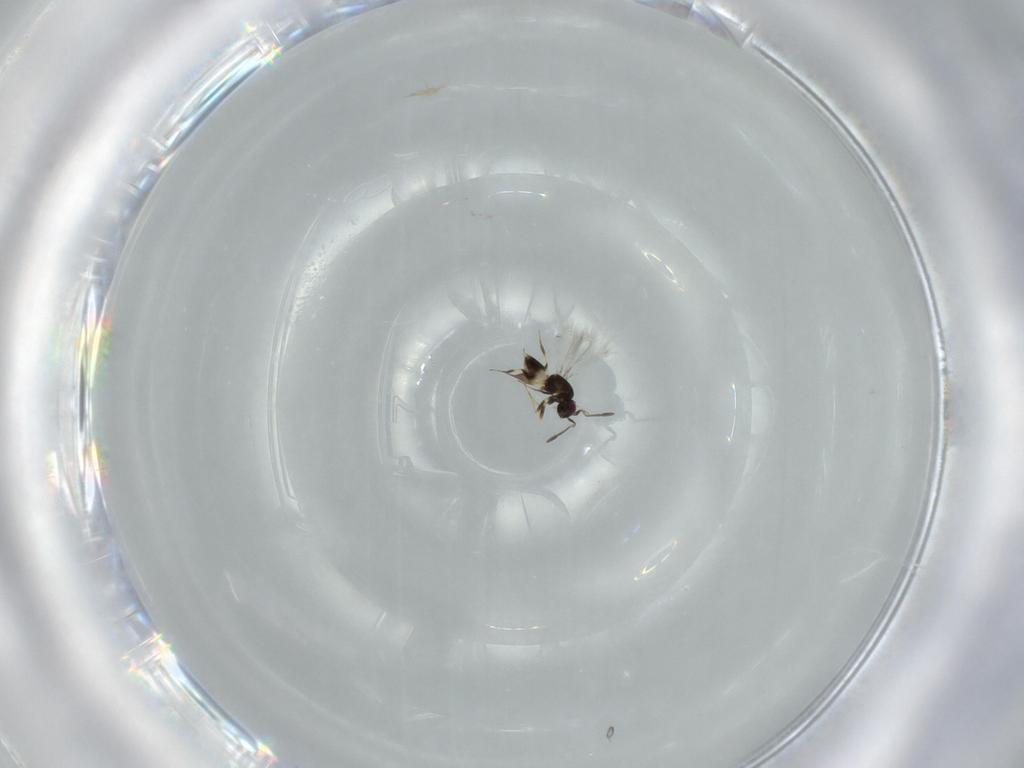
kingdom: Animalia
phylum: Arthropoda
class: Insecta
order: Hymenoptera
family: Mymaridae
